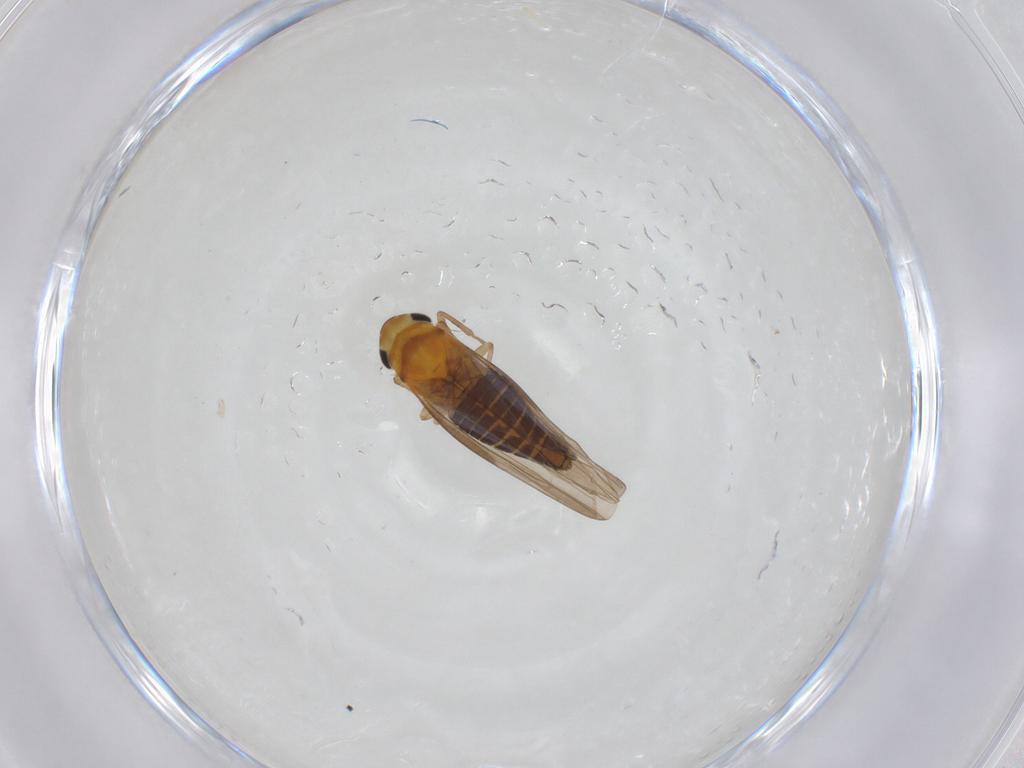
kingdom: Animalia
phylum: Arthropoda
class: Insecta
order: Hemiptera
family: Cicadellidae
